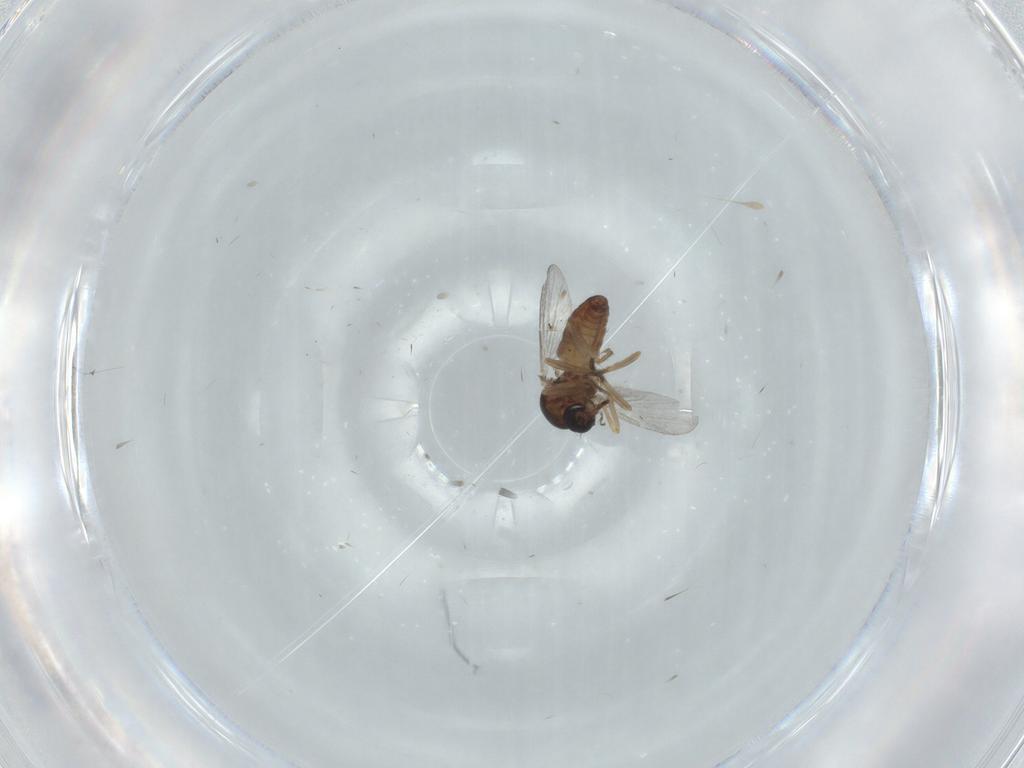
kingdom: Animalia
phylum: Arthropoda
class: Insecta
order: Diptera
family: Ceratopogonidae
